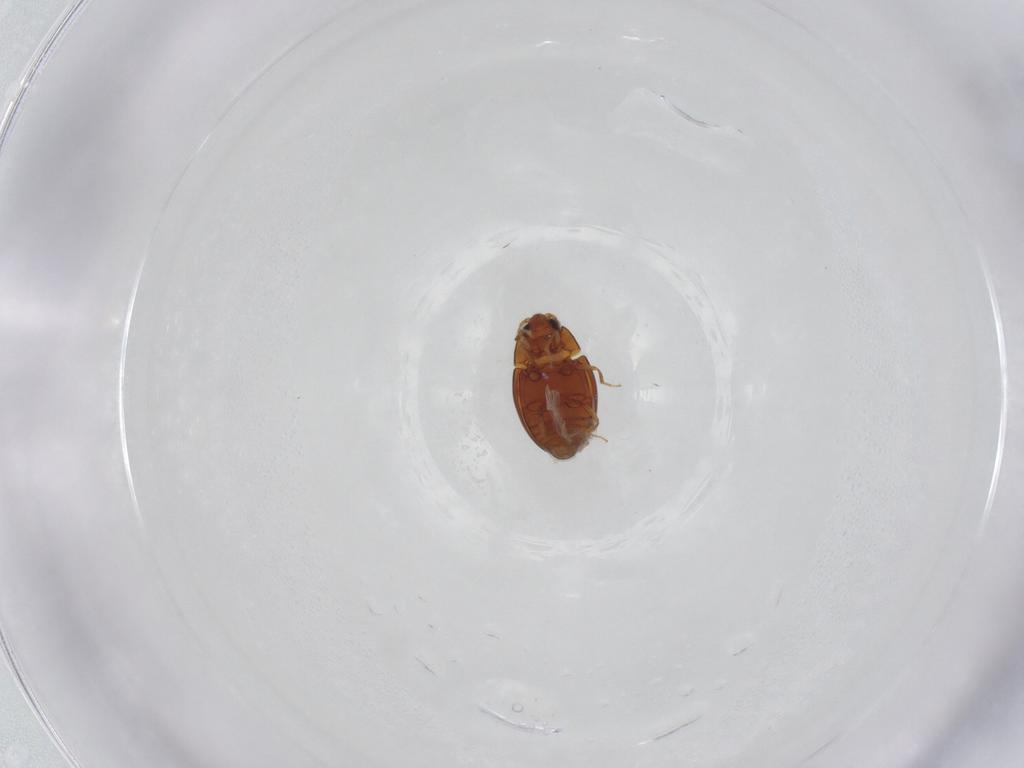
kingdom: Animalia
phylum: Arthropoda
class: Insecta
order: Coleoptera
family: Cryptophagidae
